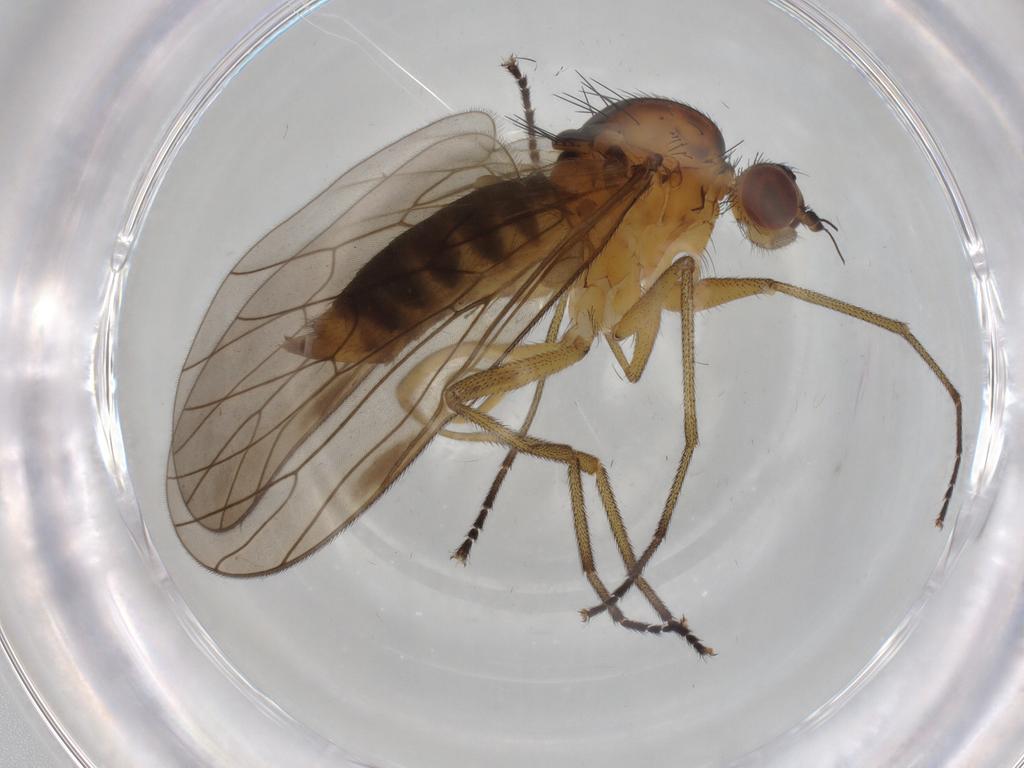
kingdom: Animalia
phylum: Arthropoda
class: Insecta
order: Diptera
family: Brachystomatidae
